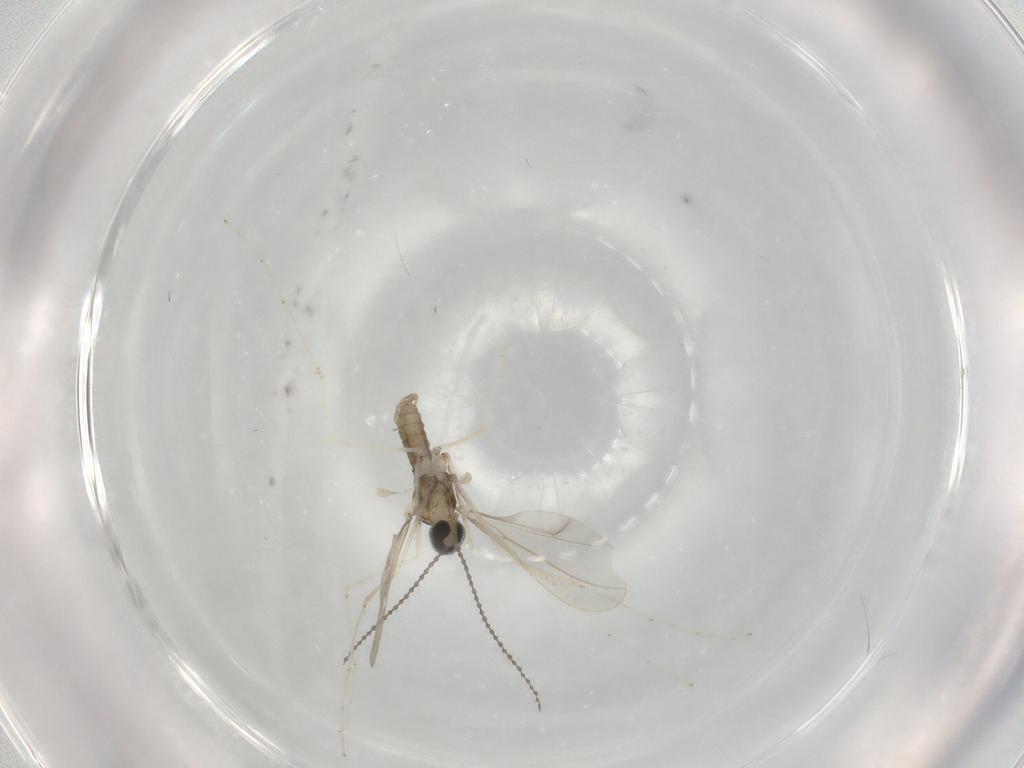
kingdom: Animalia
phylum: Arthropoda
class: Insecta
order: Diptera
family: Cecidomyiidae
